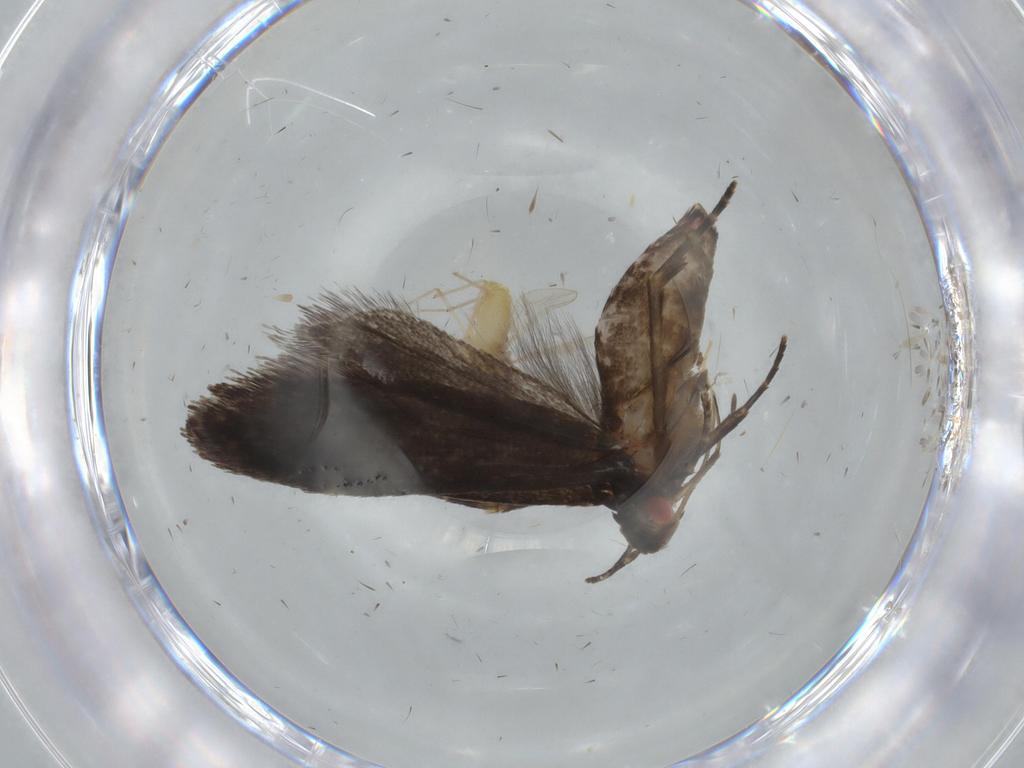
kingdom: Animalia
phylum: Arthropoda
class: Insecta
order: Lepidoptera
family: Gelechiidae
